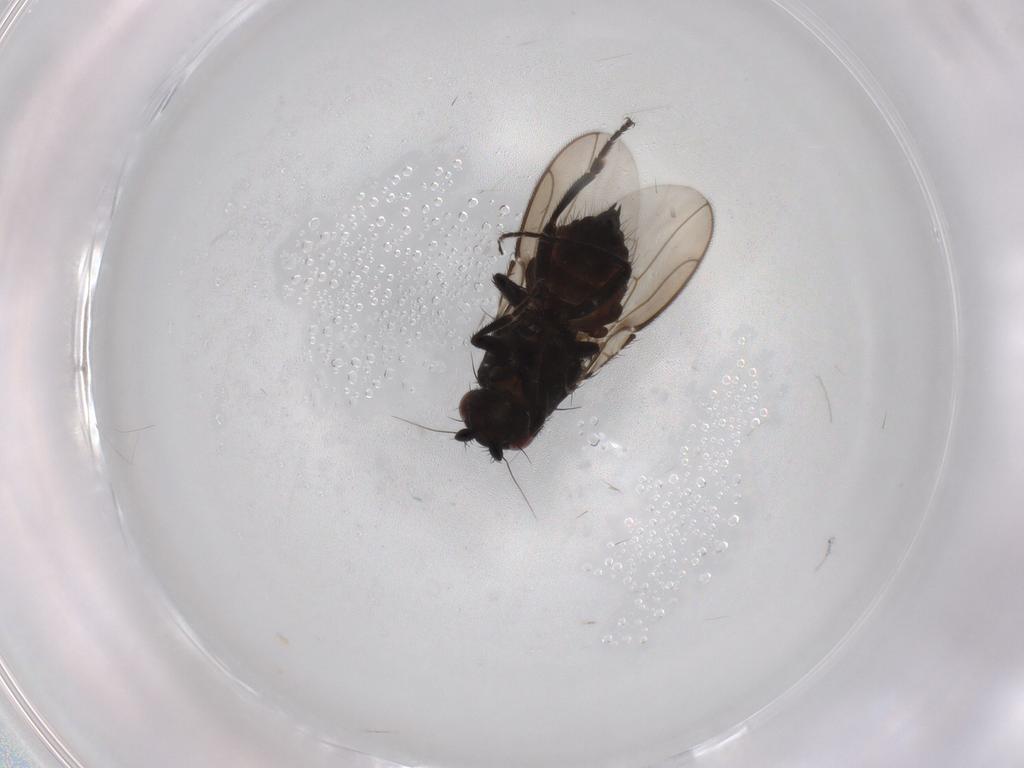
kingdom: Animalia
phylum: Arthropoda
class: Insecta
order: Diptera
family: Sphaeroceridae
